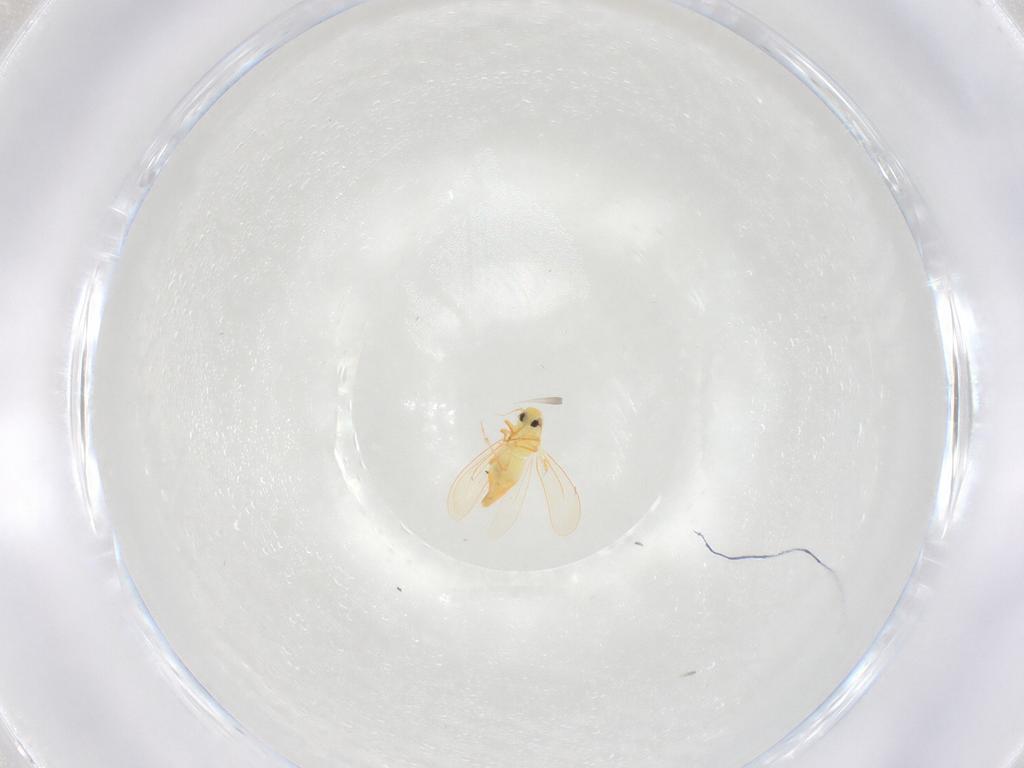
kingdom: Animalia
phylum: Arthropoda
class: Insecta
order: Hemiptera
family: Aleyrodidae
